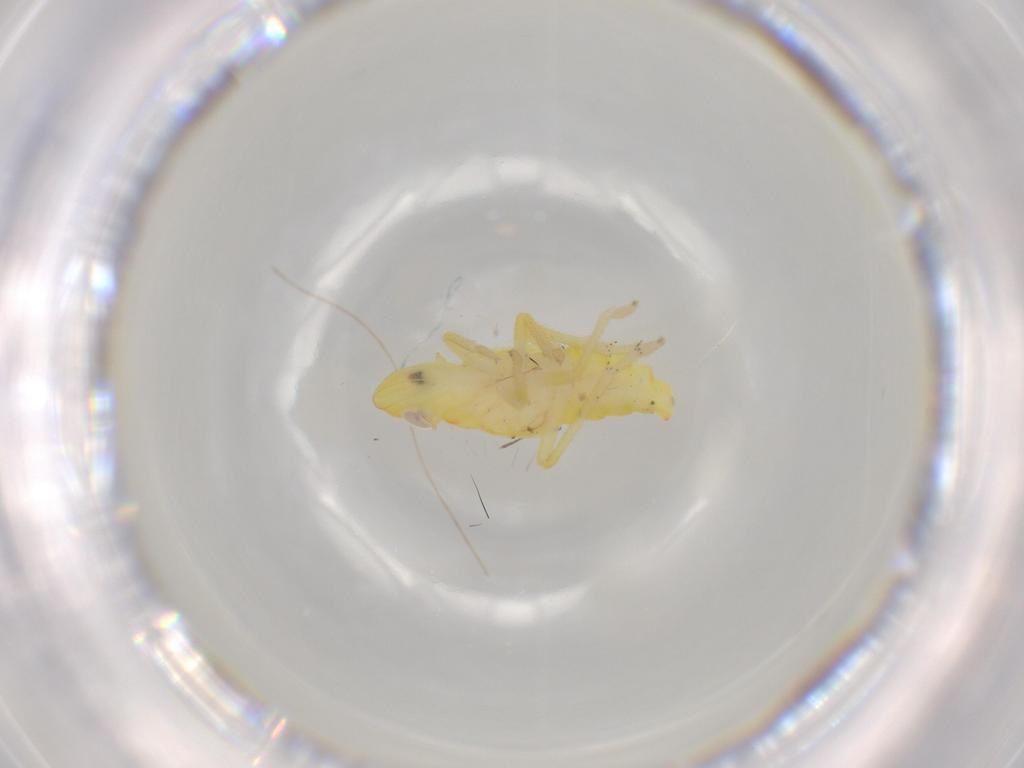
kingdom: Animalia
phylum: Arthropoda
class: Insecta
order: Hemiptera
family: Tropiduchidae
